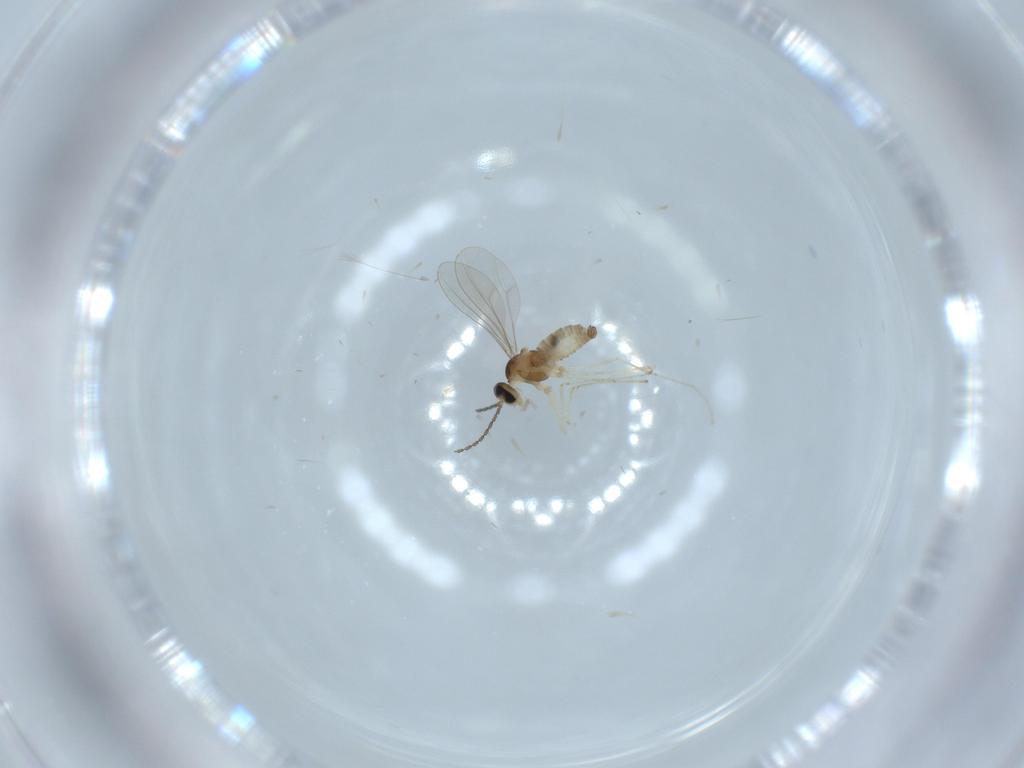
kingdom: Animalia
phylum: Arthropoda
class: Insecta
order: Diptera
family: Cecidomyiidae
